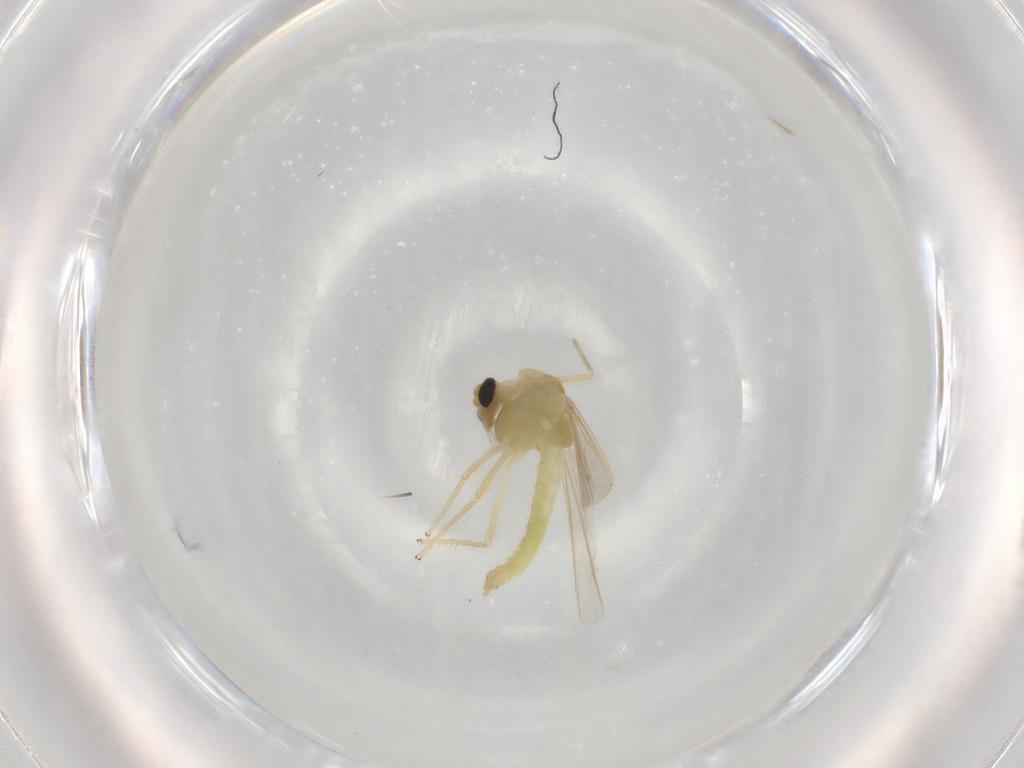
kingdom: Animalia
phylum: Arthropoda
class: Insecta
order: Diptera
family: Chironomidae
